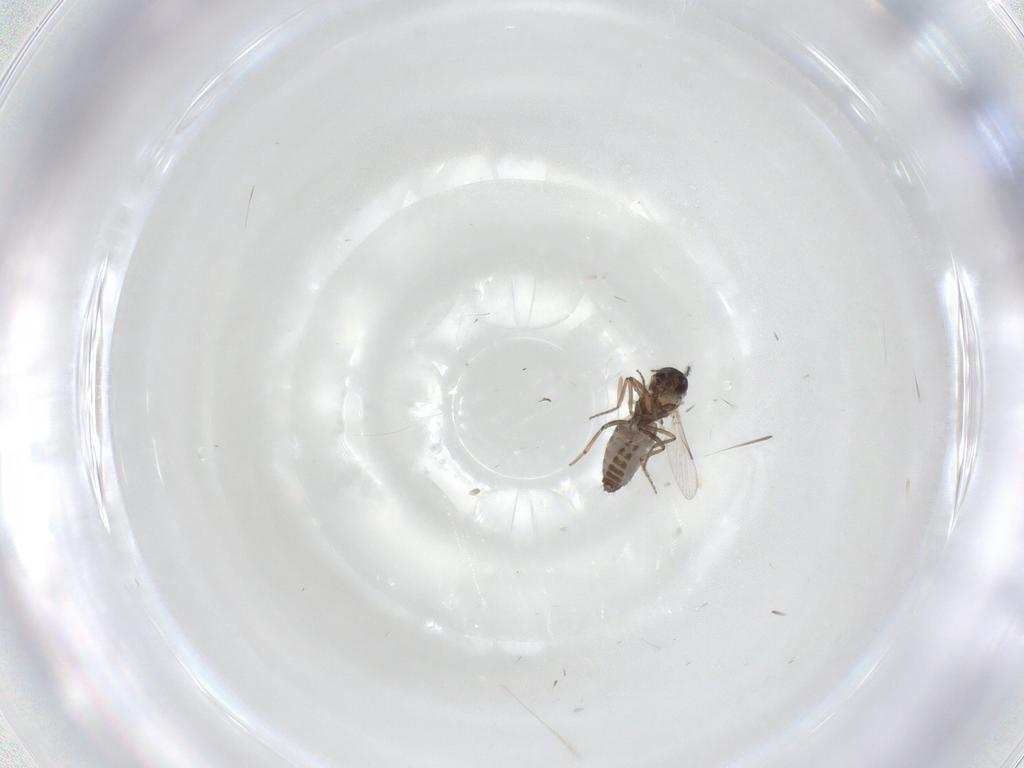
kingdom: Animalia
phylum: Arthropoda
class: Insecta
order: Diptera
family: Ceratopogonidae
